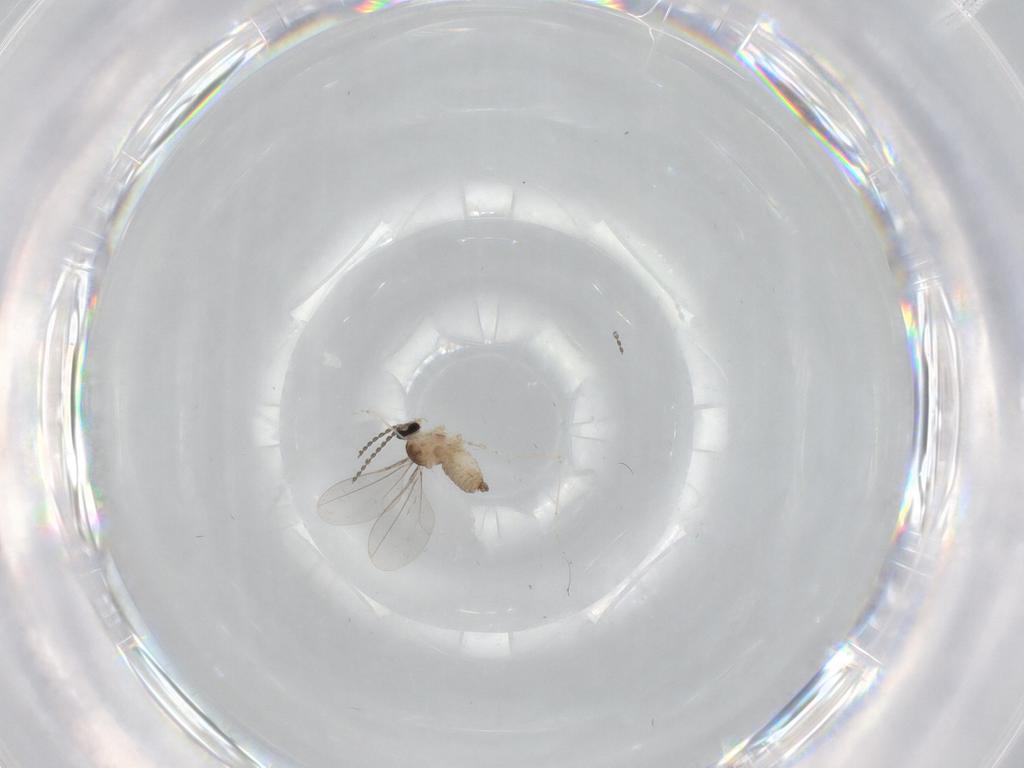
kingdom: Animalia
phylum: Arthropoda
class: Insecta
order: Diptera
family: Cecidomyiidae
